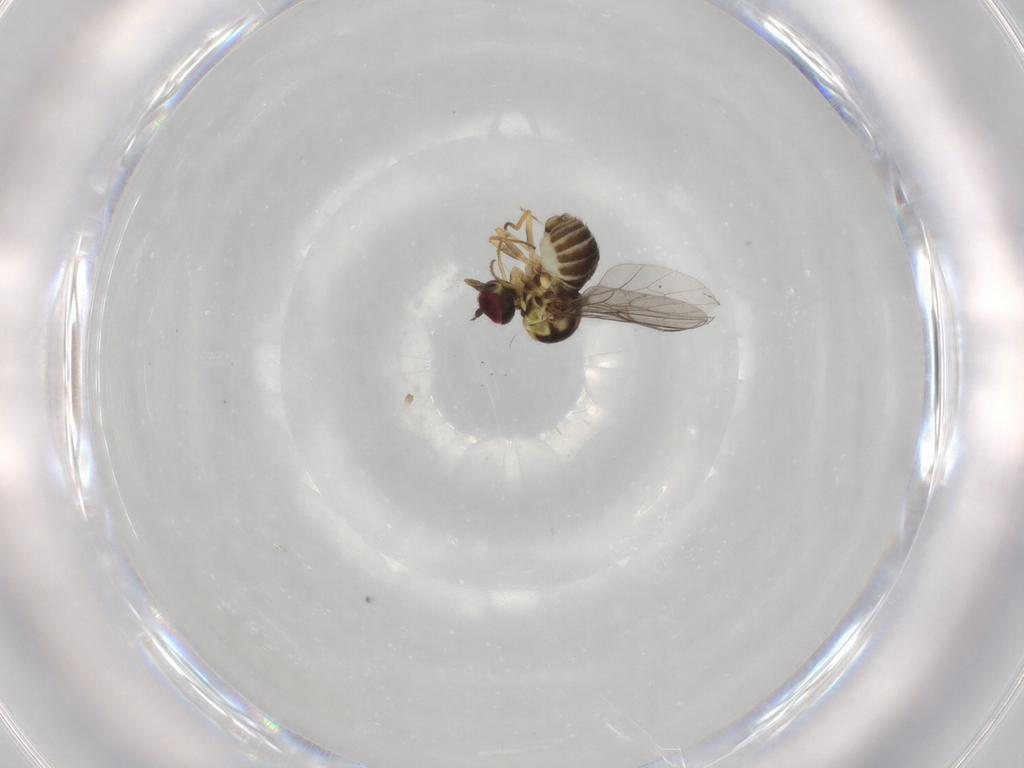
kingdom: Animalia
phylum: Arthropoda
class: Insecta
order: Diptera
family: Bombyliidae
